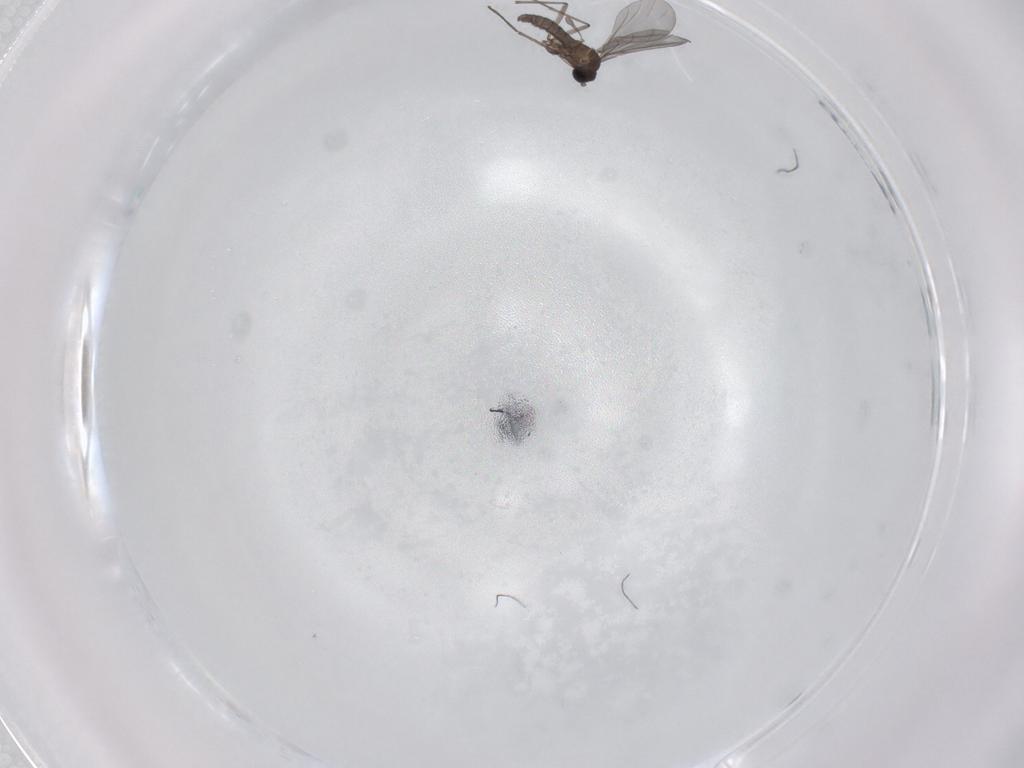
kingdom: Animalia
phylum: Arthropoda
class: Insecta
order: Diptera
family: Sciaridae
